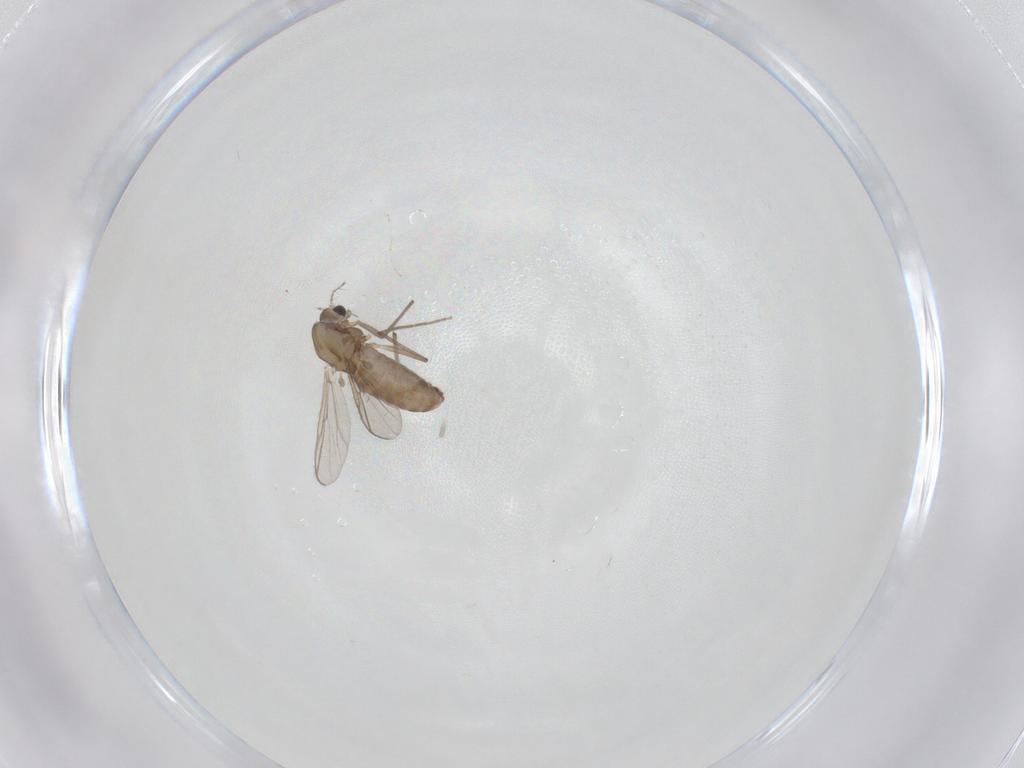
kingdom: Animalia
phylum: Arthropoda
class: Insecta
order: Diptera
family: Chironomidae
